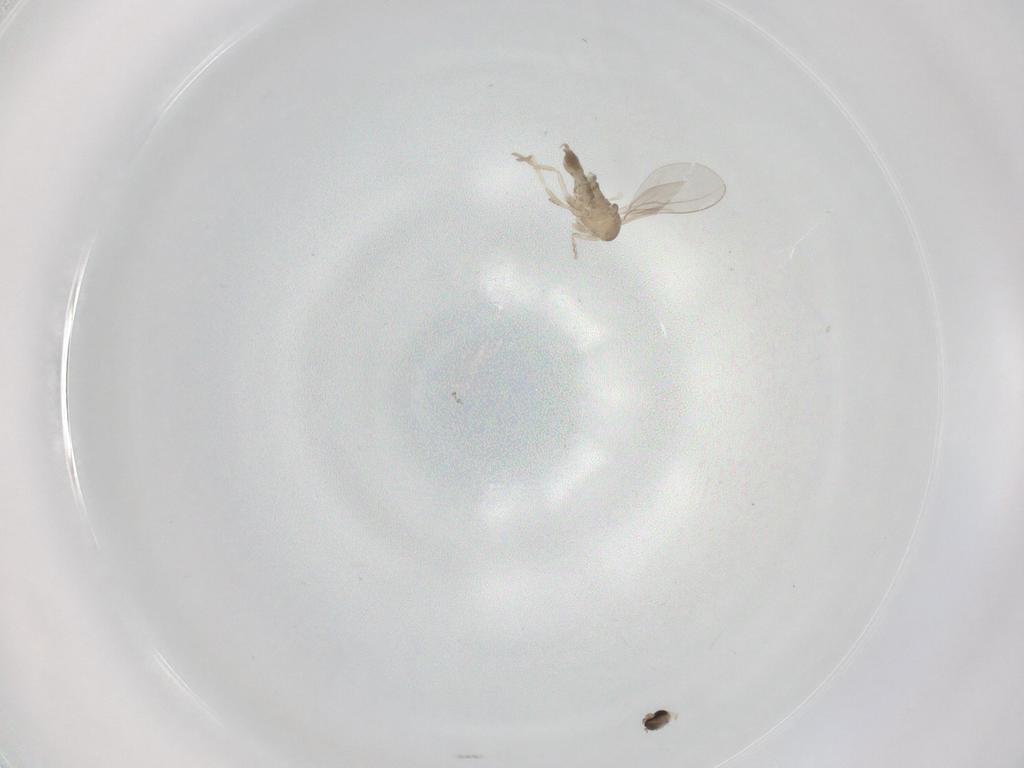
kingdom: Animalia
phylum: Arthropoda
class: Insecta
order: Diptera
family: Cecidomyiidae
